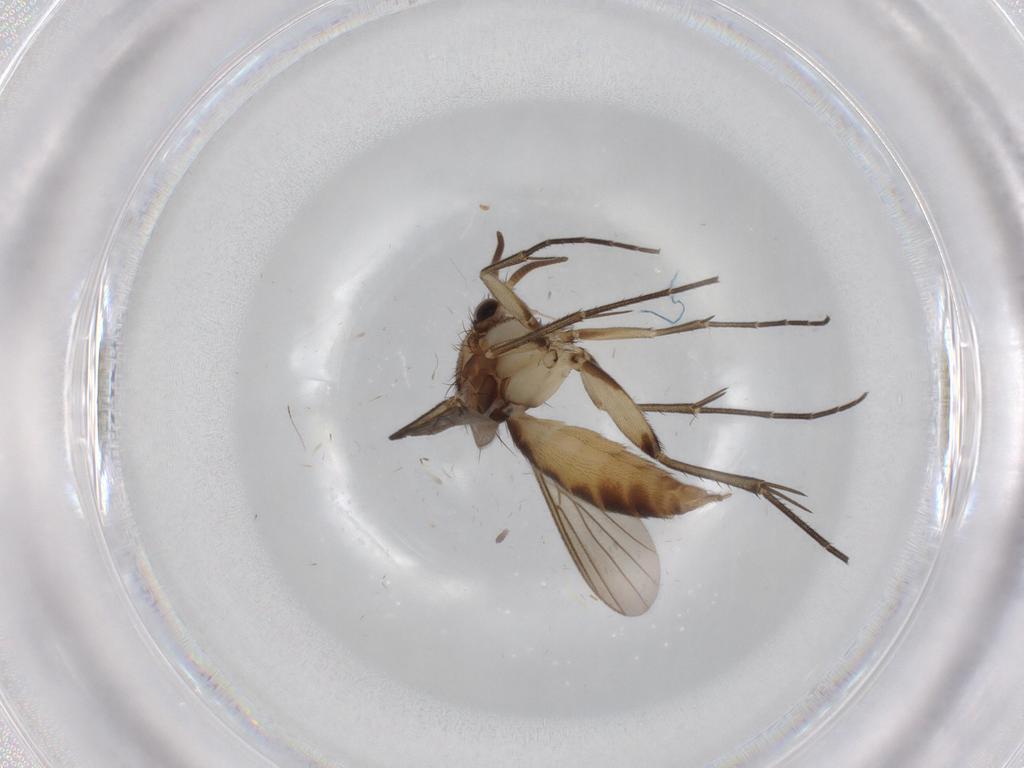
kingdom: Animalia
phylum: Arthropoda
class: Insecta
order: Diptera
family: Mycetophilidae
